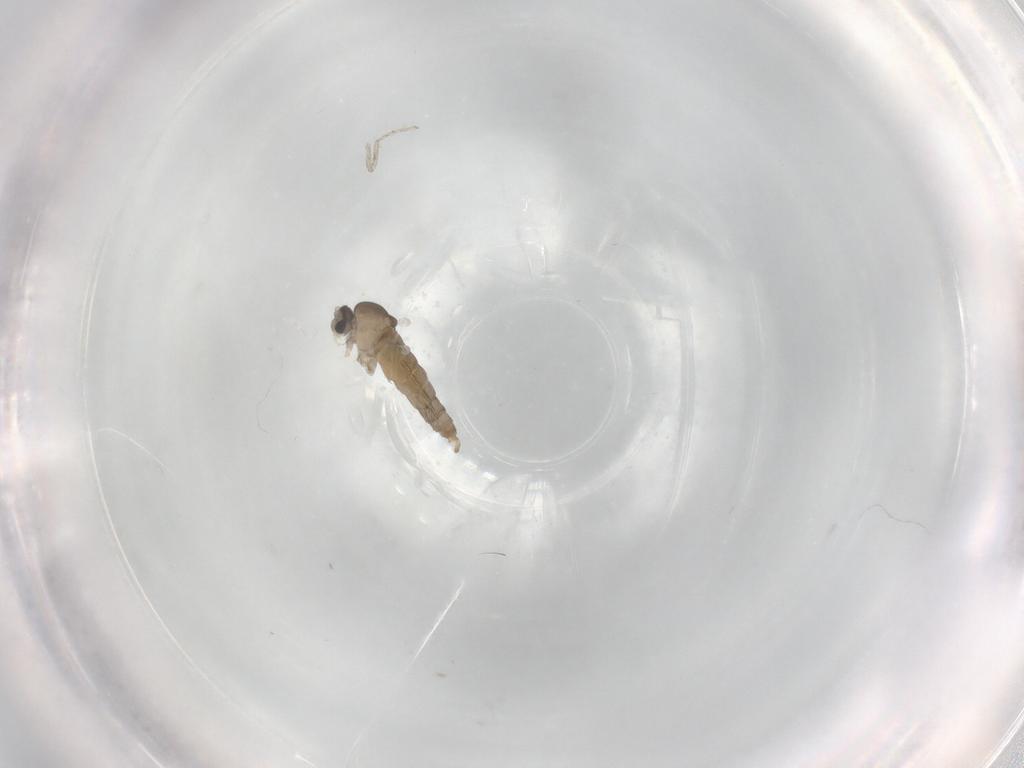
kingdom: Animalia
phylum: Arthropoda
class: Insecta
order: Diptera
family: Cecidomyiidae
